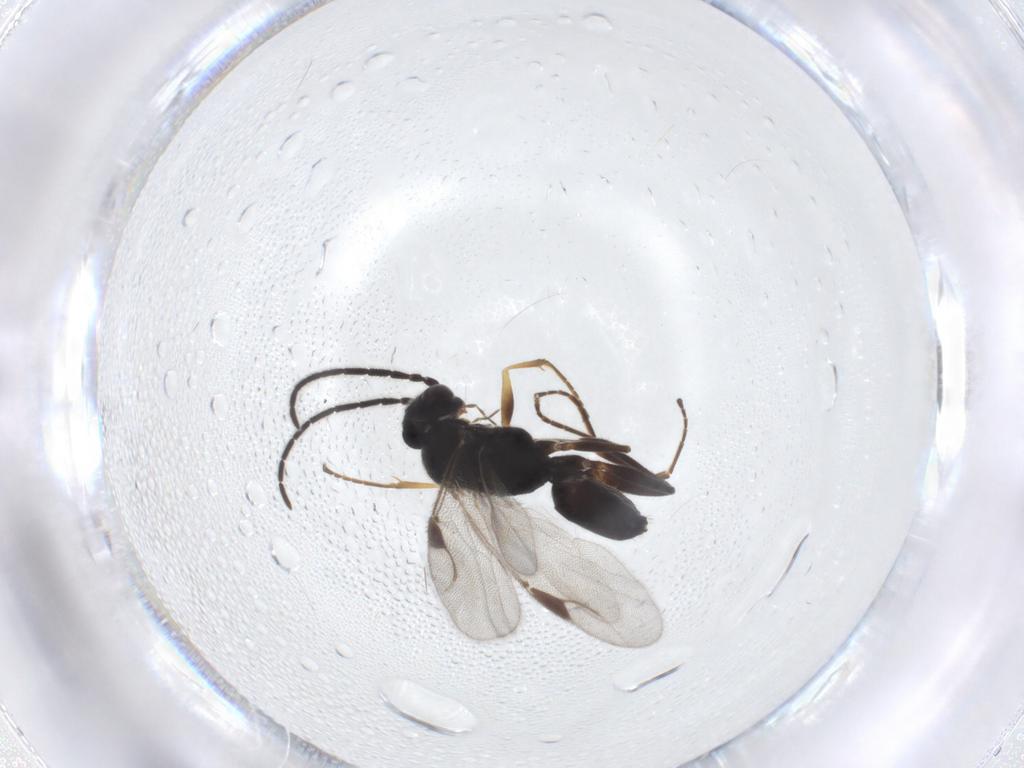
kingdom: Animalia
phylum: Arthropoda
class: Insecta
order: Hymenoptera
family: Dryinidae
